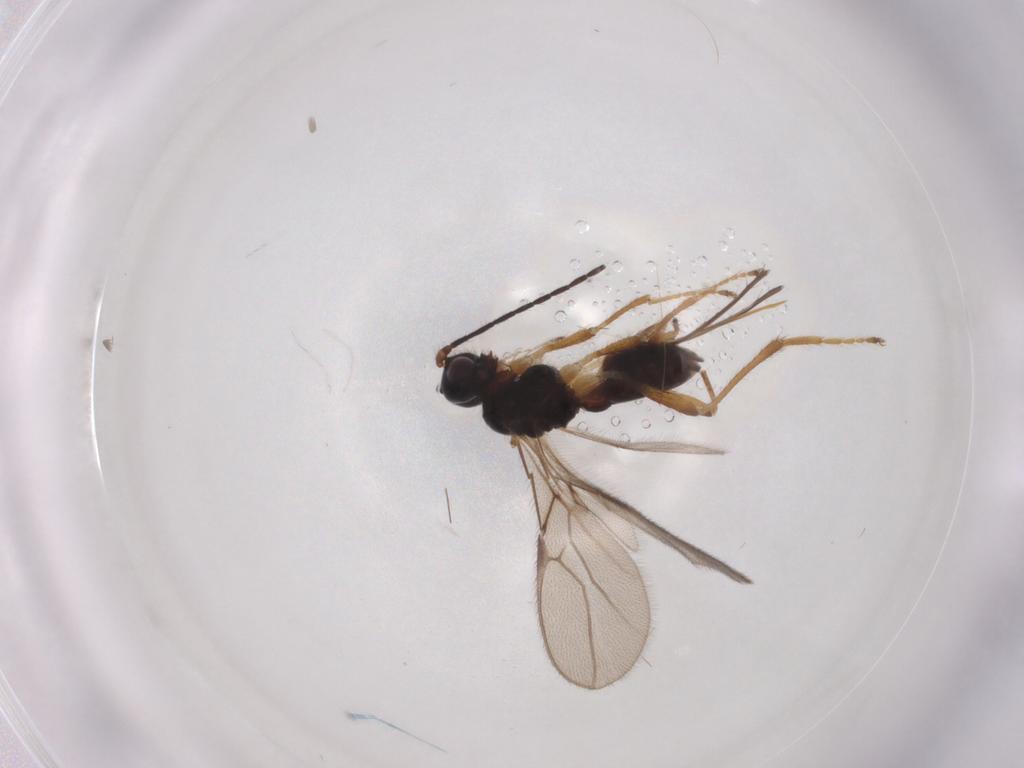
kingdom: Animalia
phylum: Arthropoda
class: Insecta
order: Hymenoptera
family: Braconidae
